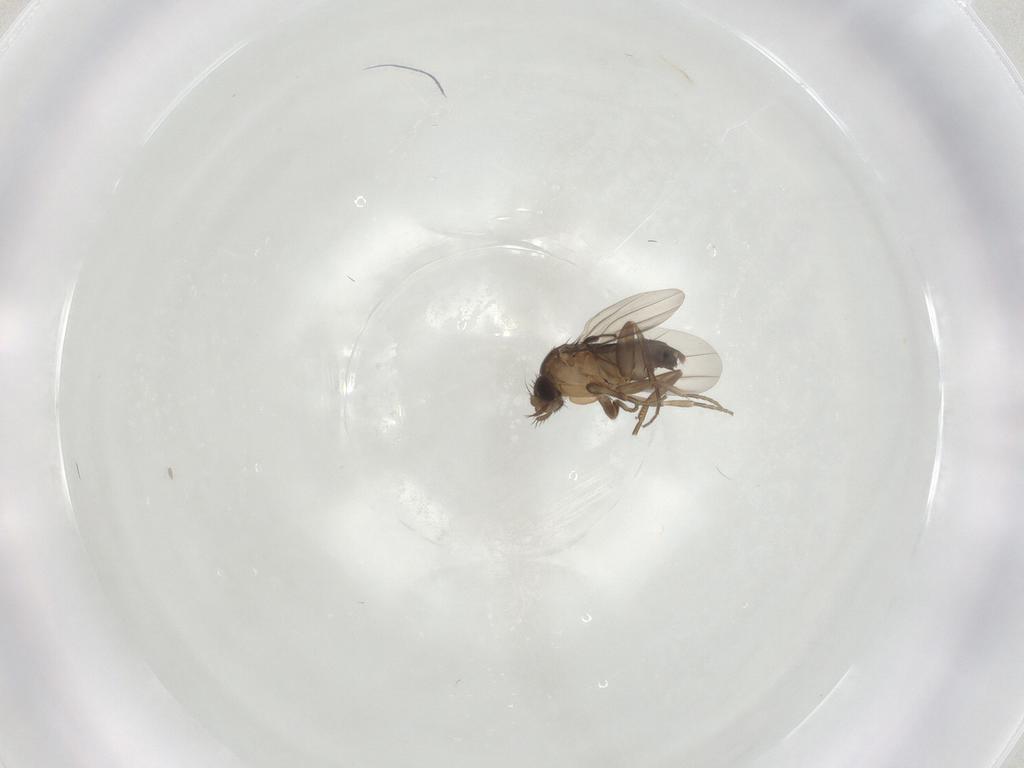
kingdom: Animalia
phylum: Arthropoda
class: Insecta
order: Diptera
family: Phoridae
